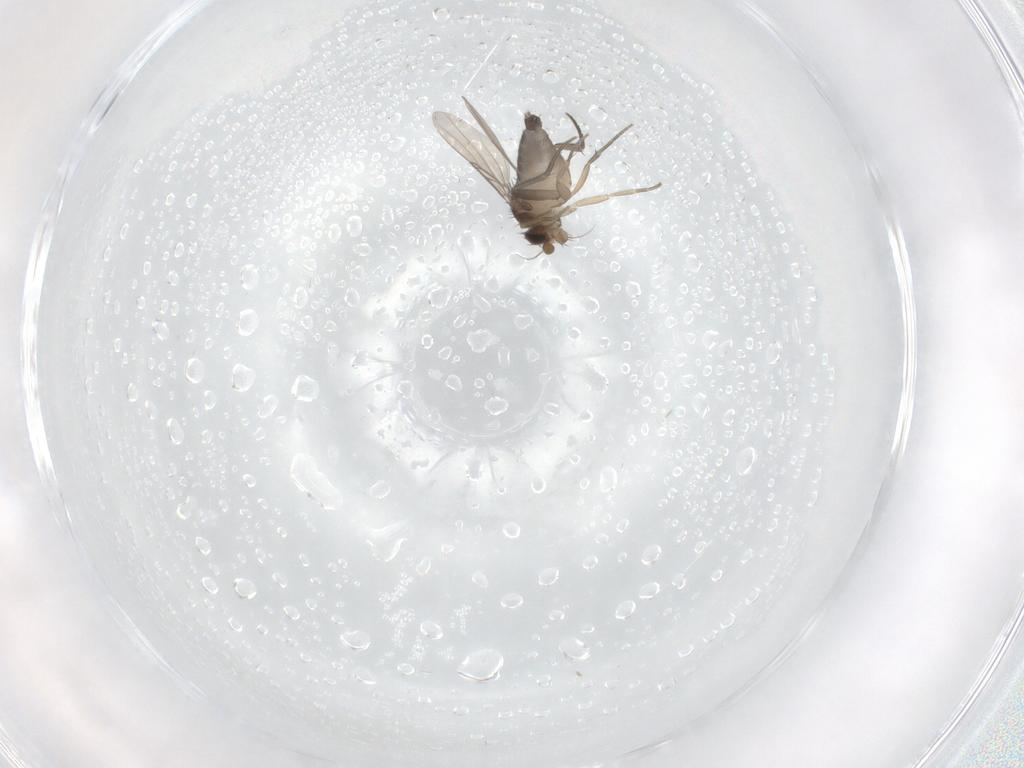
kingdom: Animalia
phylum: Arthropoda
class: Insecta
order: Diptera
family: Phoridae
